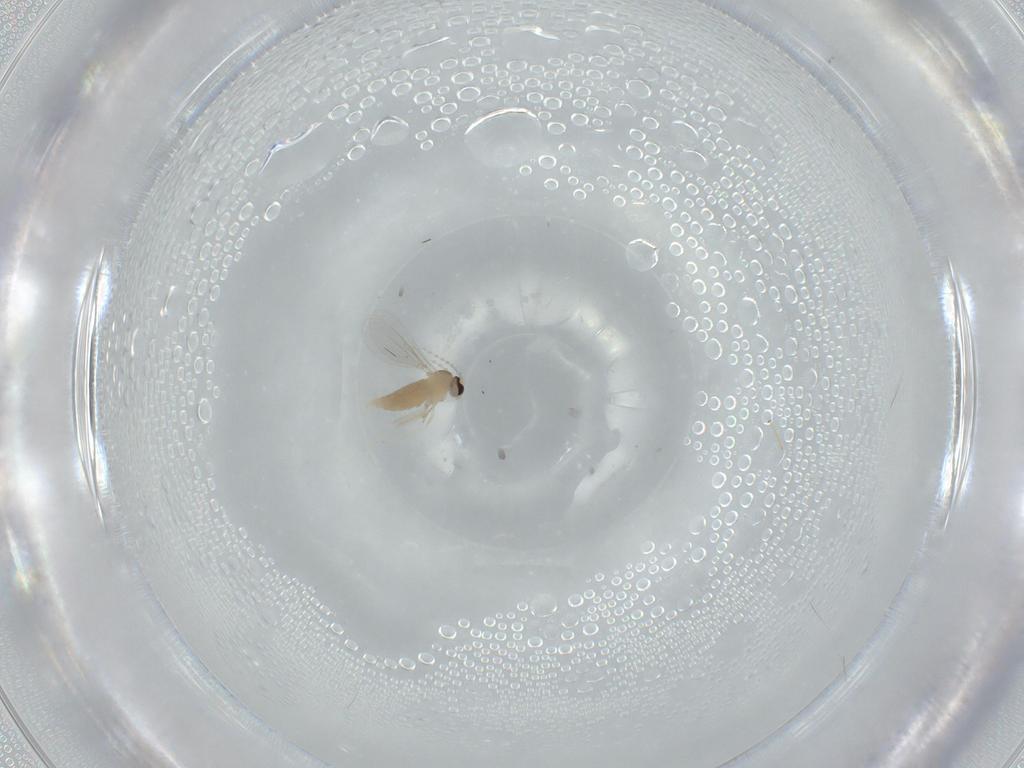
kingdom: Animalia
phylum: Arthropoda
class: Insecta
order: Diptera
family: Cecidomyiidae
